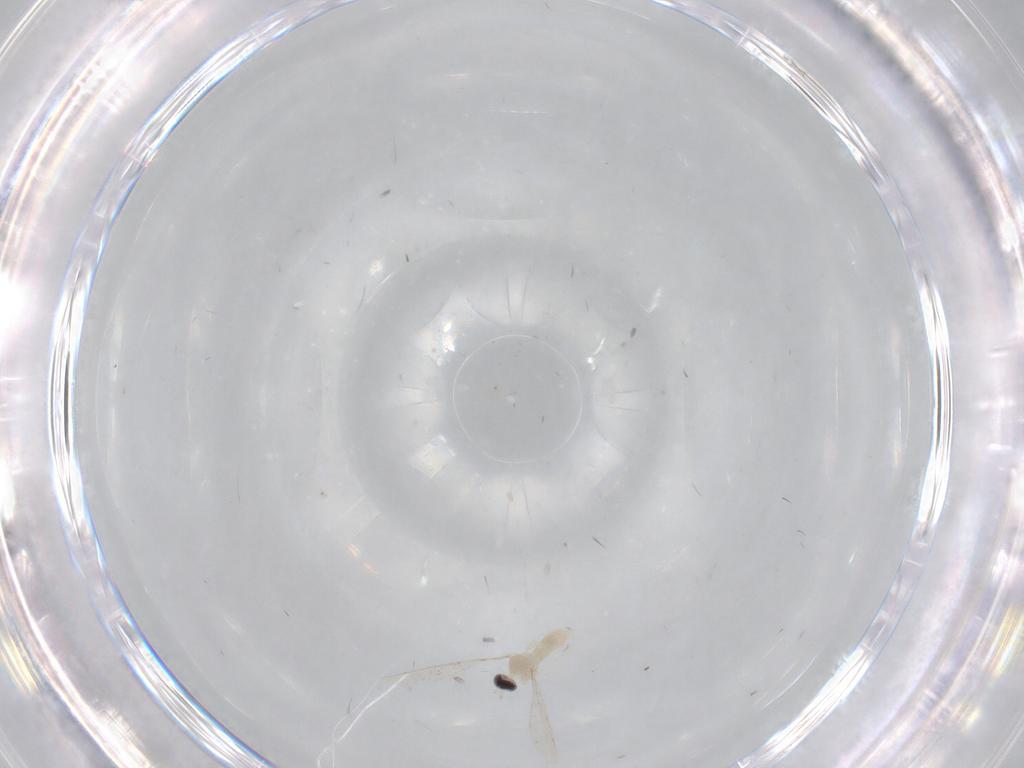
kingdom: Animalia
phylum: Arthropoda
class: Insecta
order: Diptera
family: Cecidomyiidae
